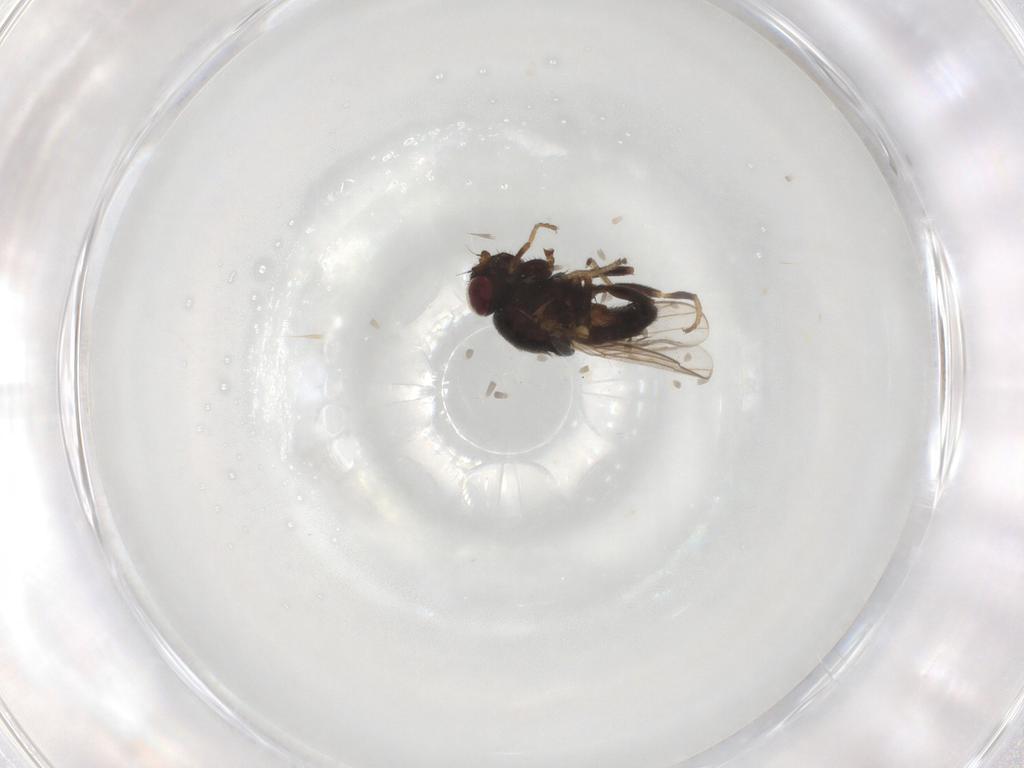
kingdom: Animalia
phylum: Arthropoda
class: Insecta
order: Diptera
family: Chloropidae
